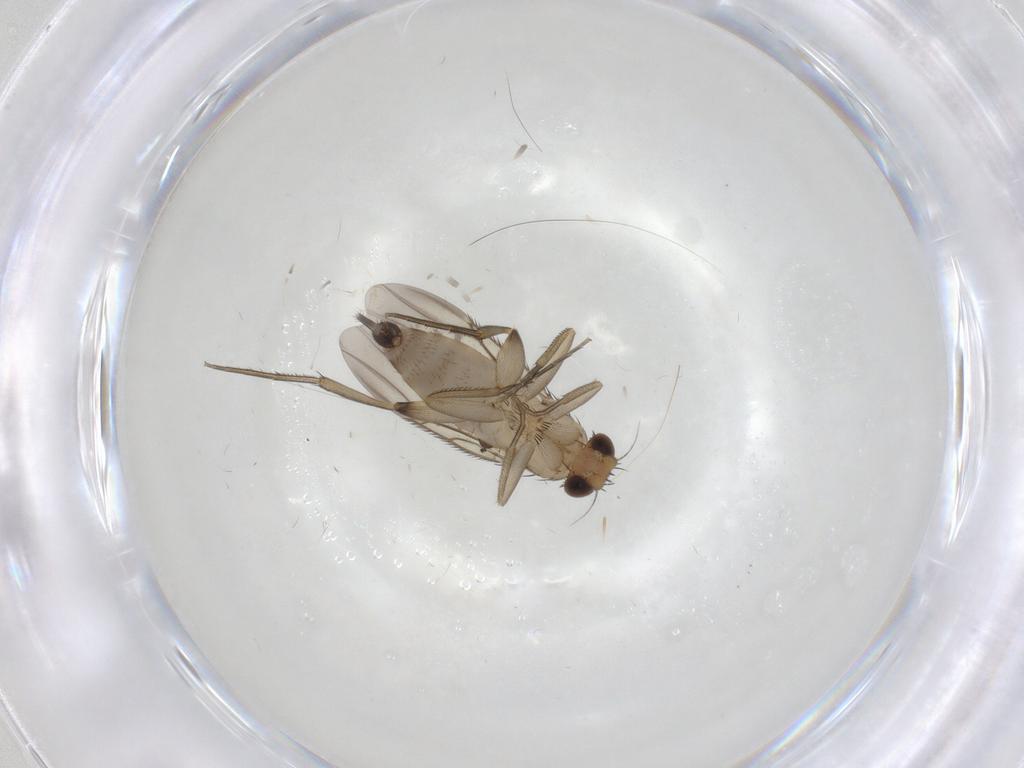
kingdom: Animalia
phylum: Arthropoda
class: Insecta
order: Diptera
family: Phoridae
